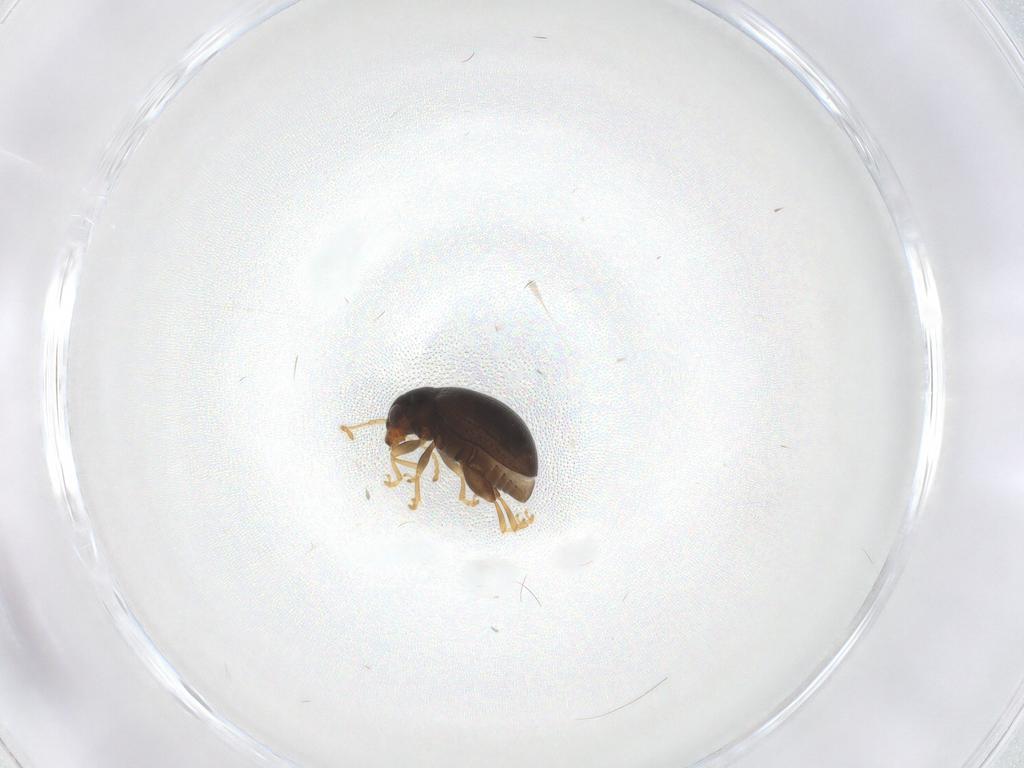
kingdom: Animalia
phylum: Arthropoda
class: Insecta
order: Coleoptera
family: Chrysomelidae
